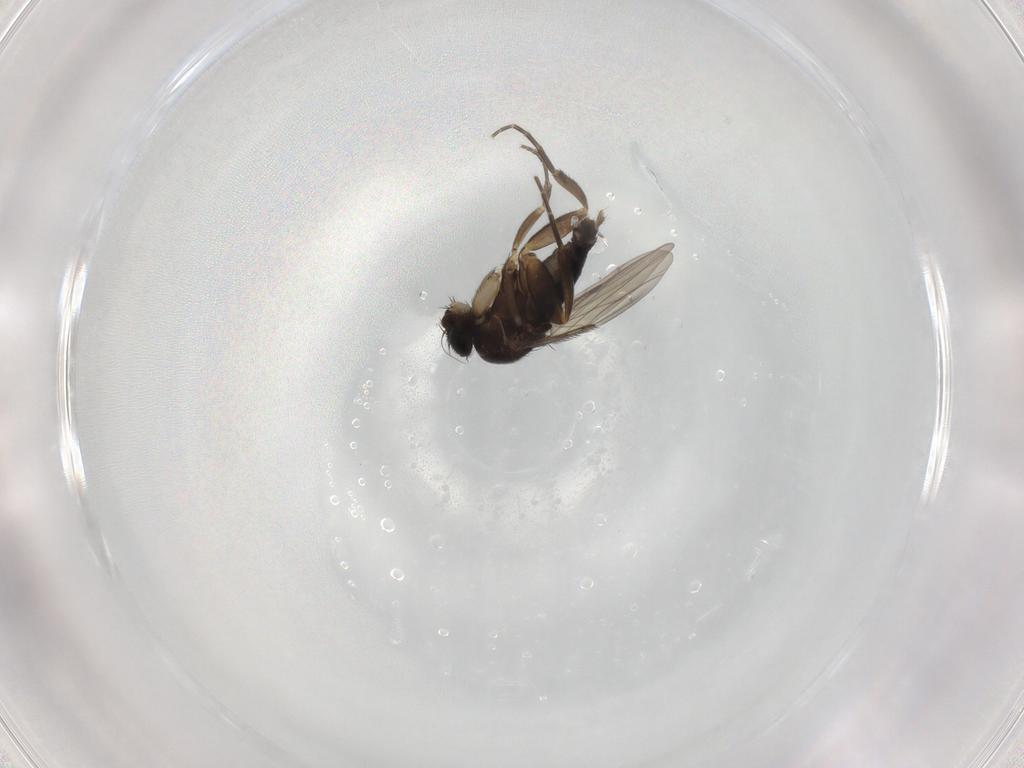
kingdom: Animalia
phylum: Arthropoda
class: Insecta
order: Diptera
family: Phoridae
